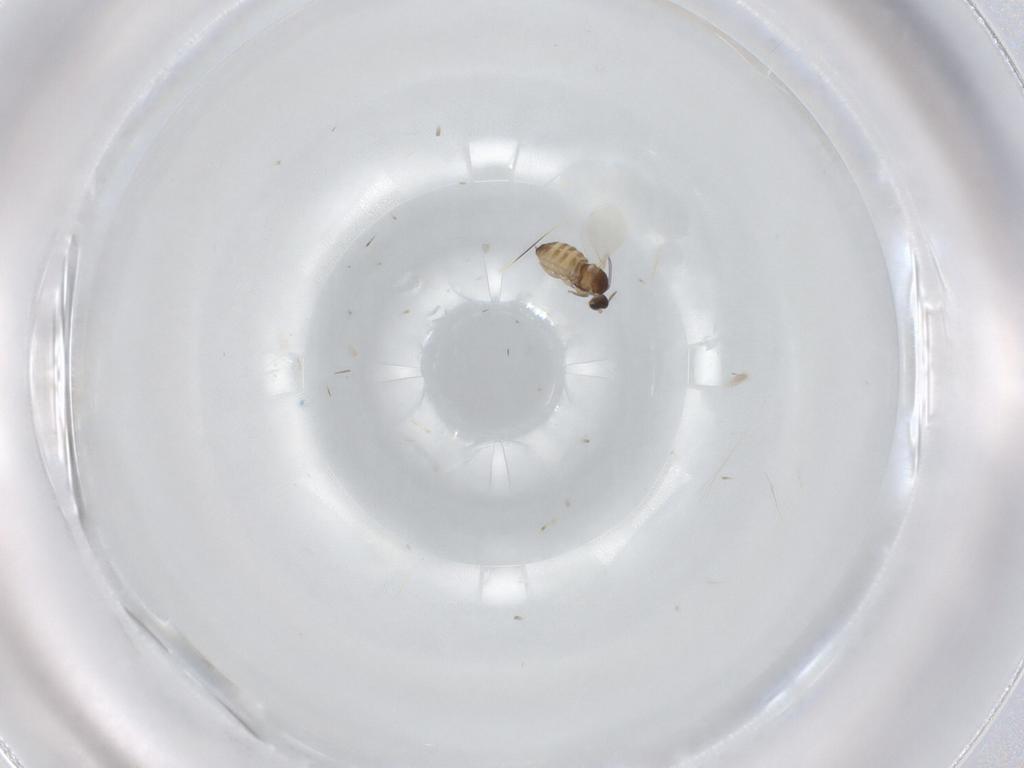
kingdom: Animalia
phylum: Arthropoda
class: Insecta
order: Diptera
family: Cecidomyiidae
